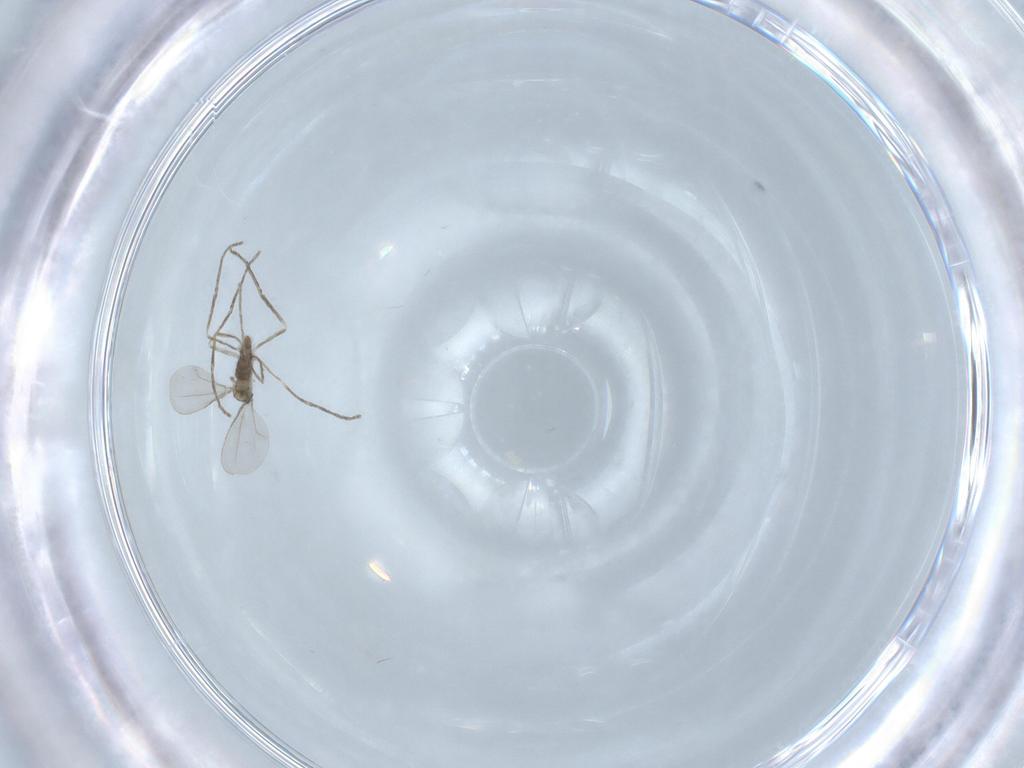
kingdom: Animalia
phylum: Arthropoda
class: Insecta
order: Diptera
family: Cecidomyiidae
